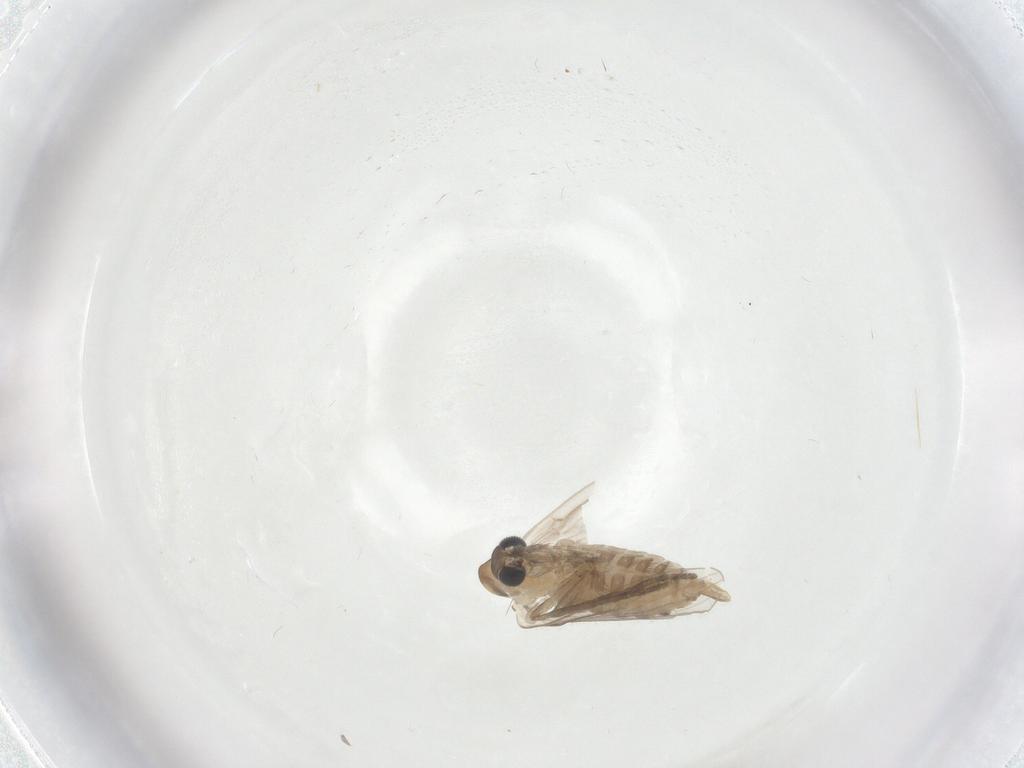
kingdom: Animalia
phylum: Arthropoda
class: Insecta
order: Diptera
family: Psychodidae
